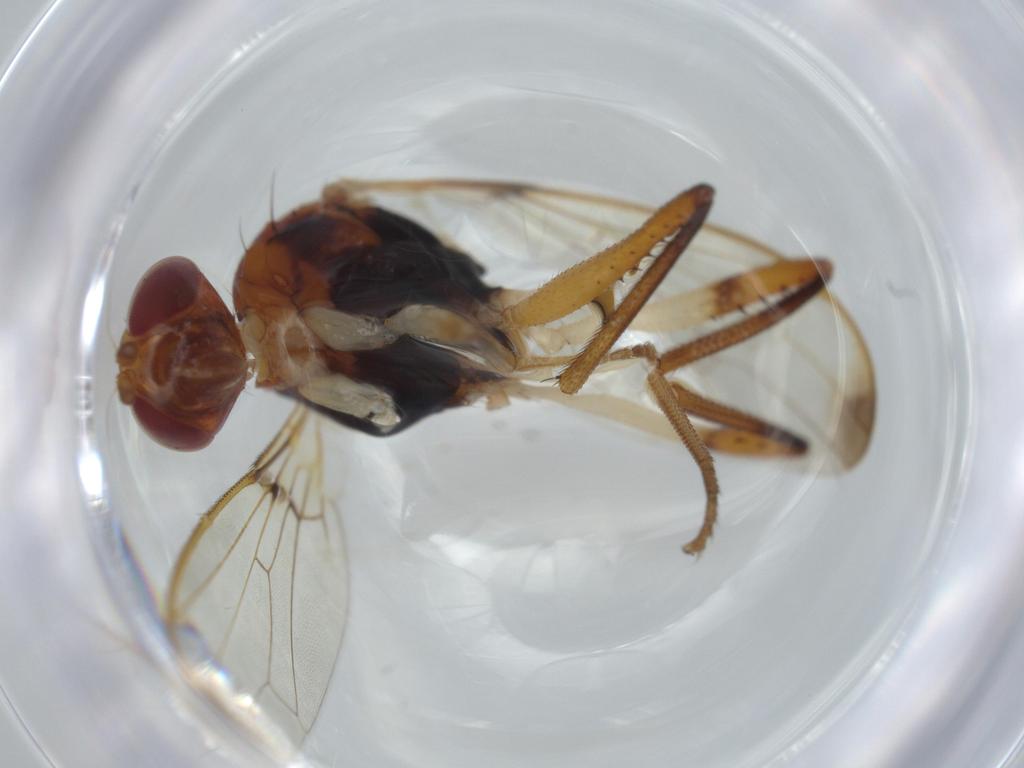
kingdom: Animalia
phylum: Arthropoda
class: Insecta
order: Diptera
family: Richardiidae
